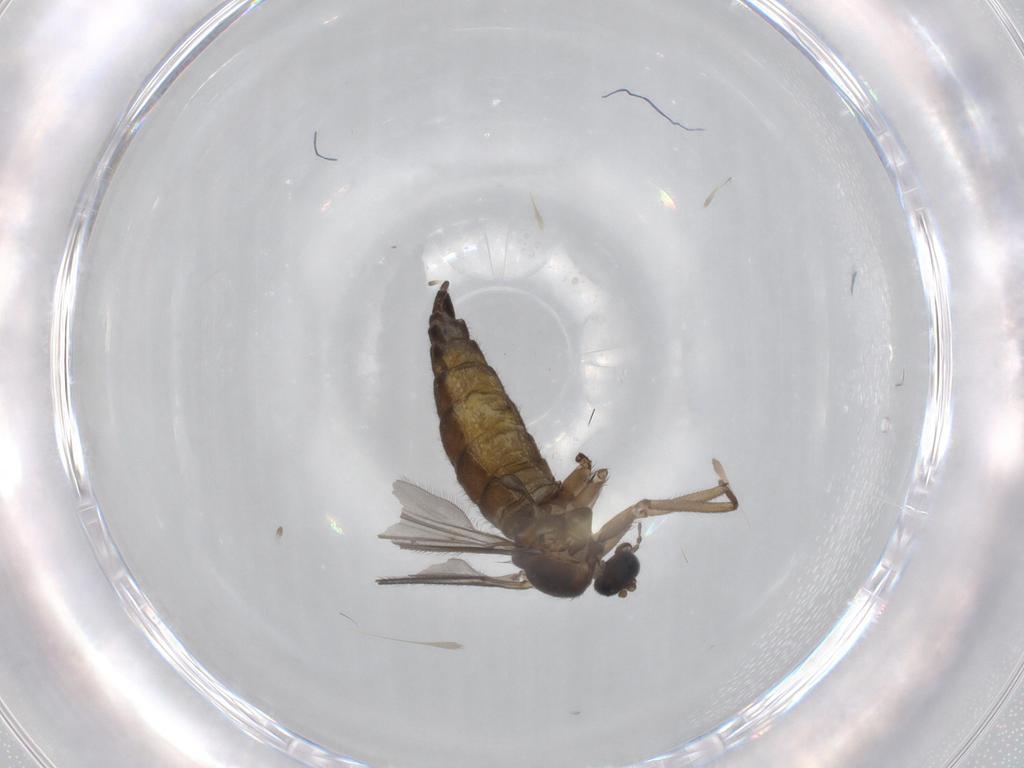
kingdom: Animalia
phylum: Arthropoda
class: Insecta
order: Diptera
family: Sciaridae
